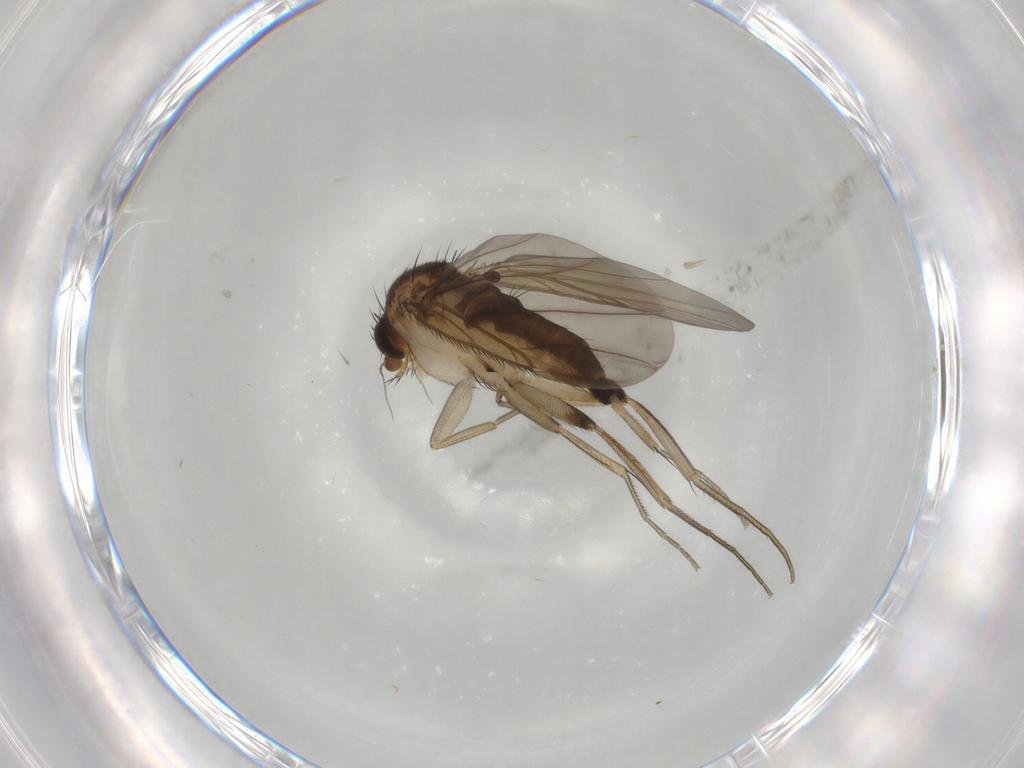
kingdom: Animalia
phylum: Arthropoda
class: Insecta
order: Diptera
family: Phoridae
